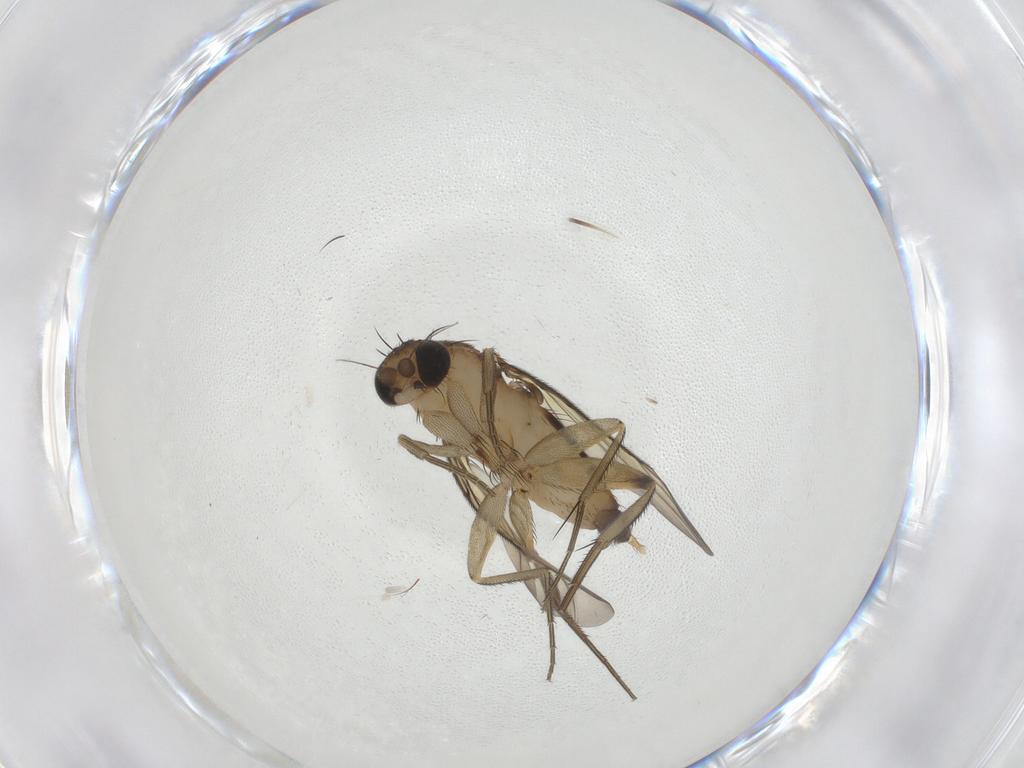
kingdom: Animalia
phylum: Arthropoda
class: Insecta
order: Diptera
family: Phoridae
